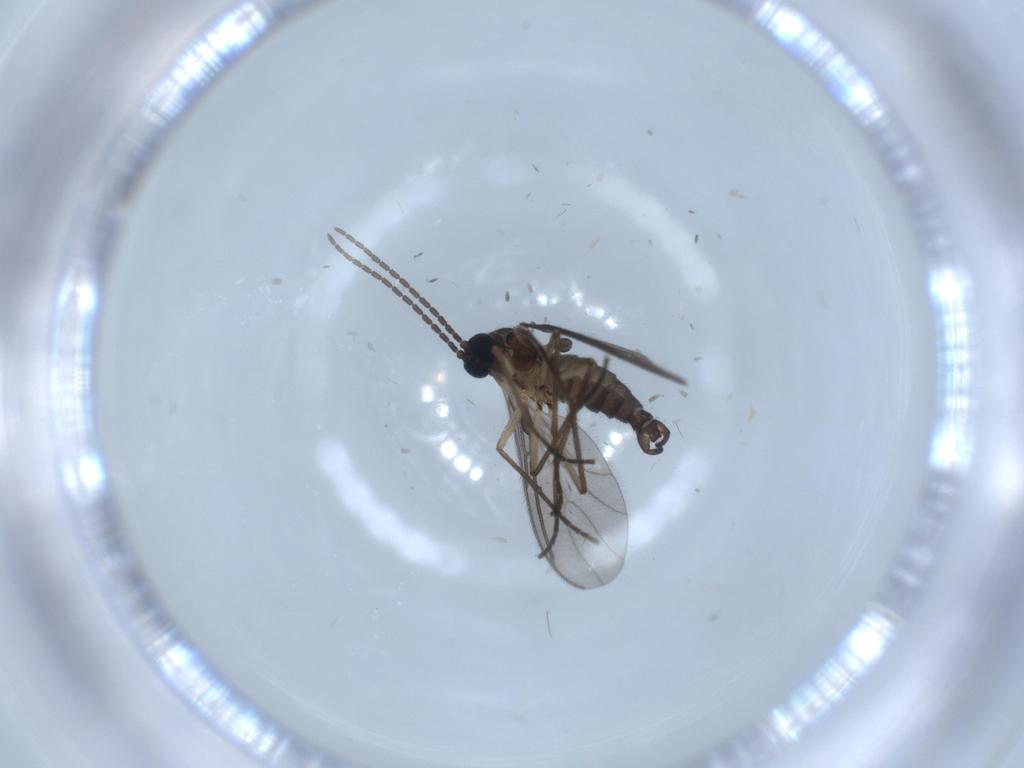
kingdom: Animalia
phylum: Arthropoda
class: Insecta
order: Diptera
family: Sciaridae
